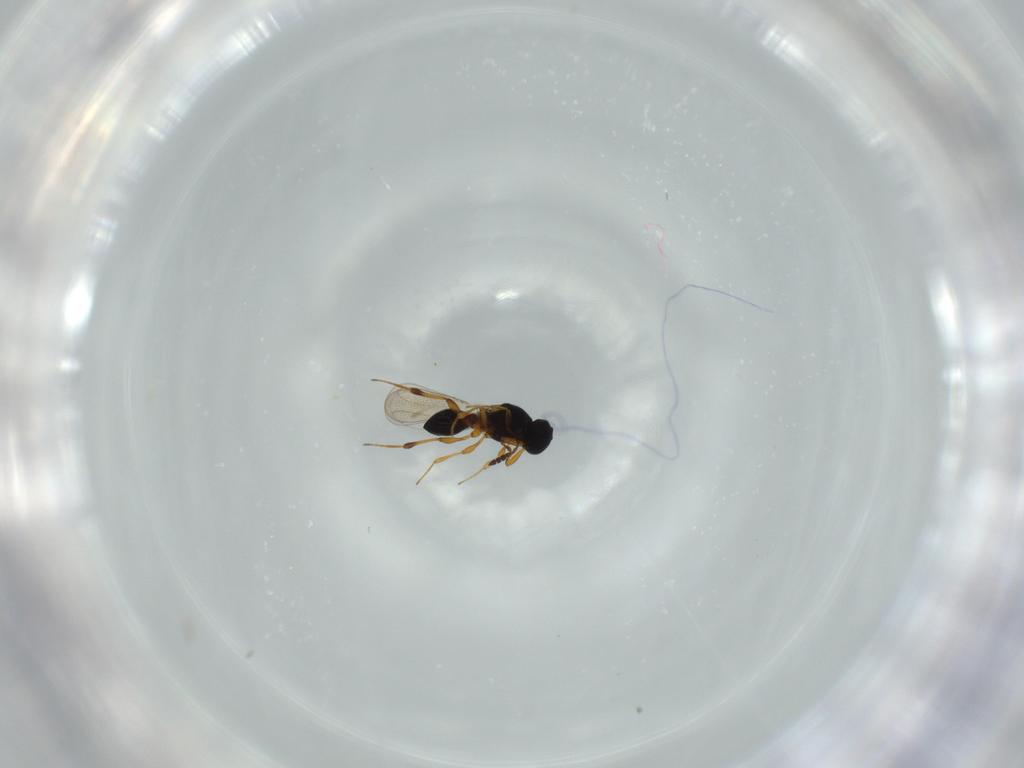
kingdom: Animalia
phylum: Arthropoda
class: Insecta
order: Hymenoptera
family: Platygastridae
